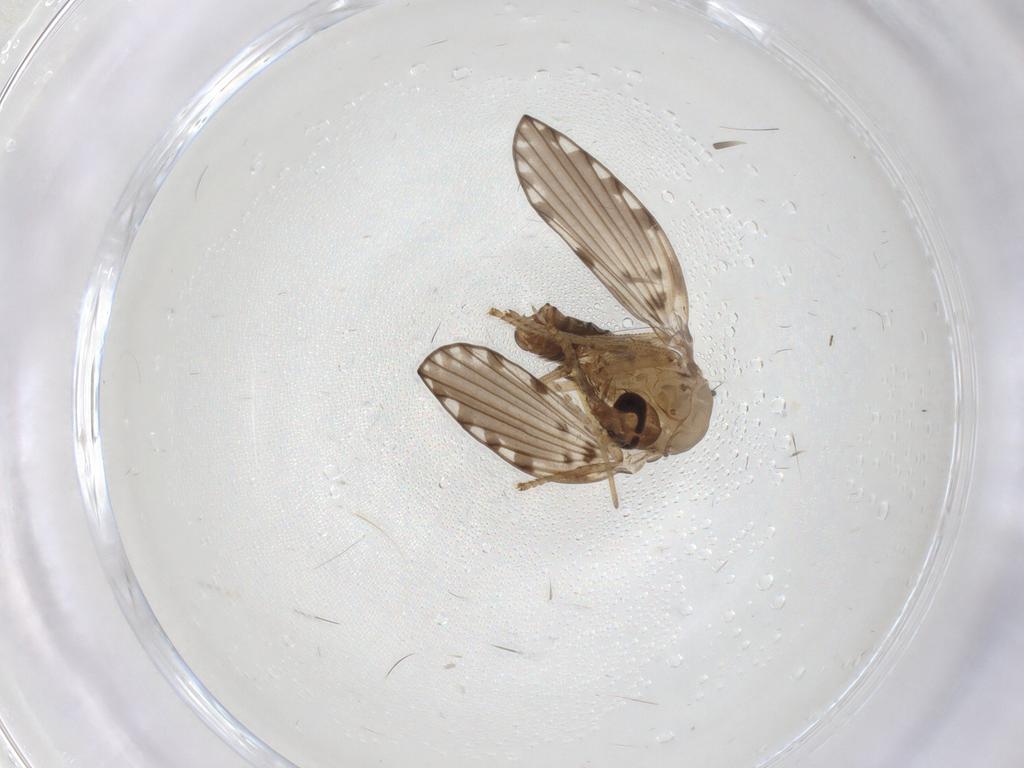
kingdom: Animalia
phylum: Arthropoda
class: Insecta
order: Diptera
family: Psychodidae
